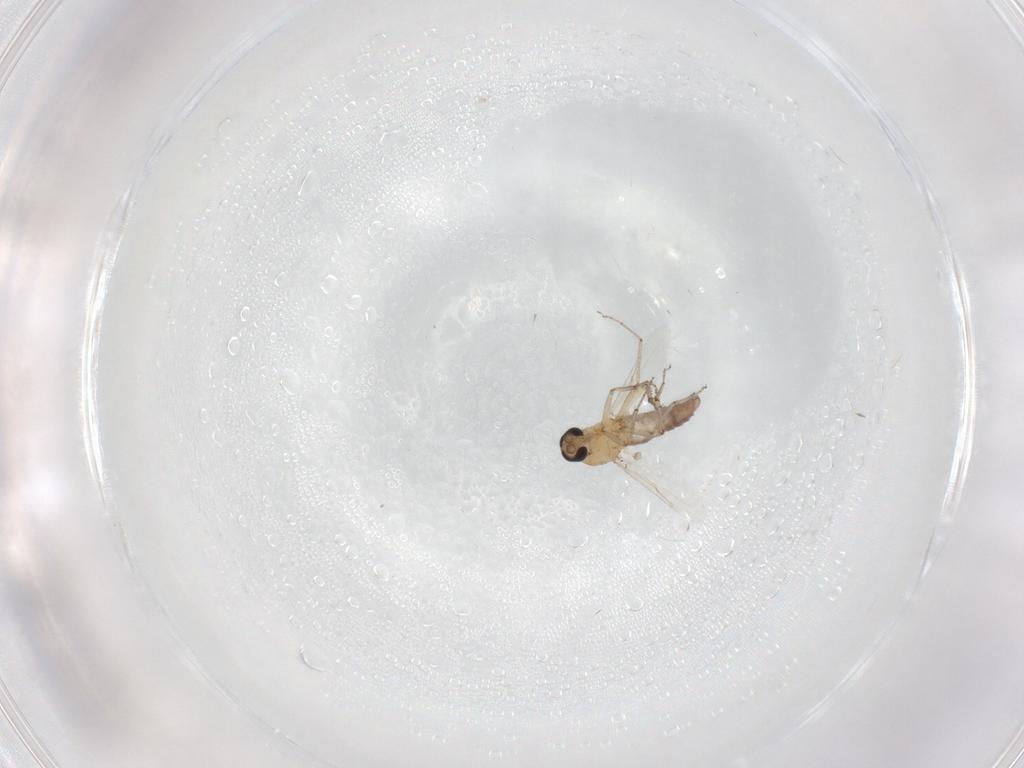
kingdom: Animalia
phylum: Arthropoda
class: Insecta
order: Diptera
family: Ceratopogonidae
